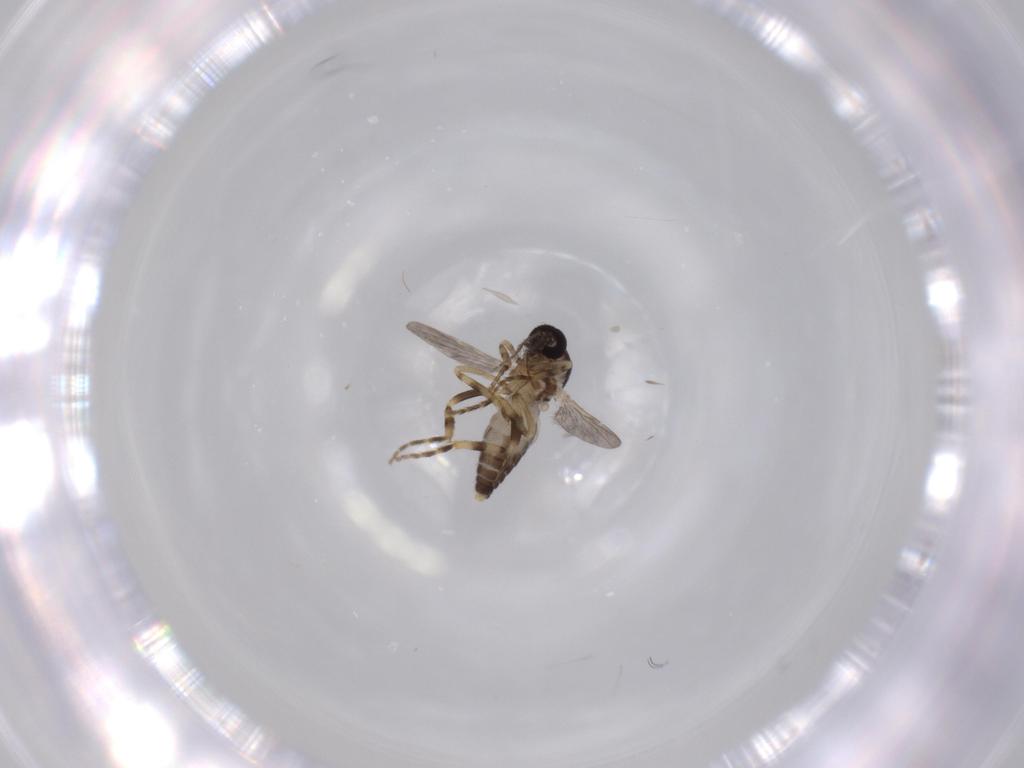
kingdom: Animalia
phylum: Arthropoda
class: Insecta
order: Diptera
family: Ceratopogonidae
